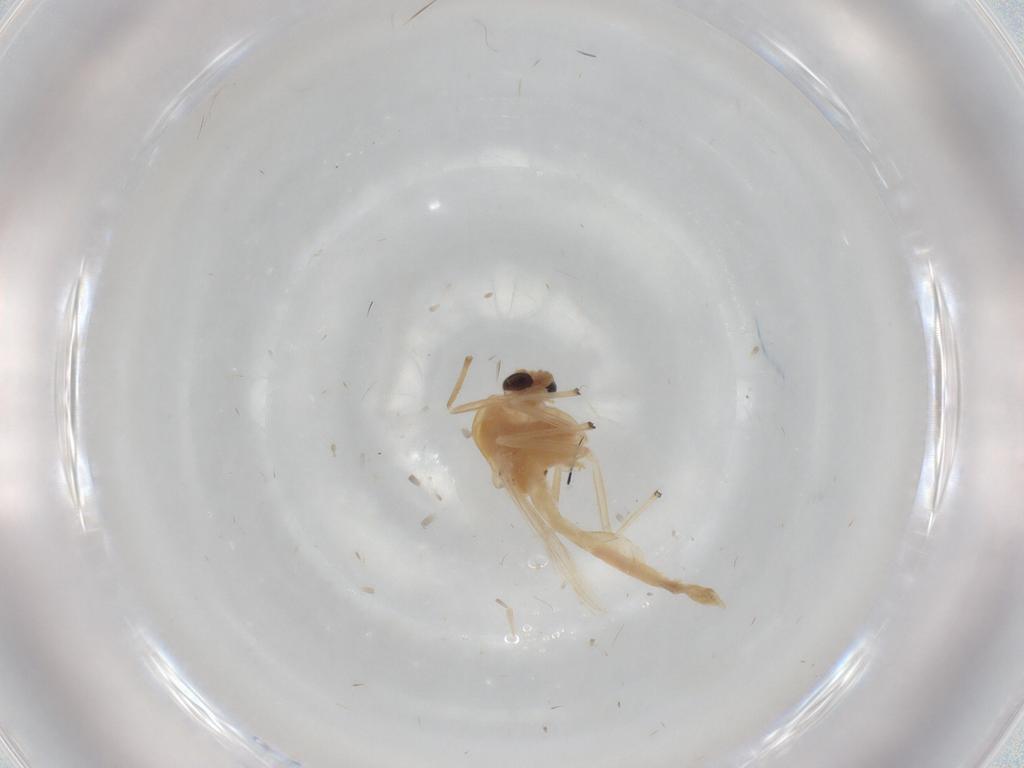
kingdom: Animalia
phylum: Arthropoda
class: Insecta
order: Diptera
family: Chironomidae
